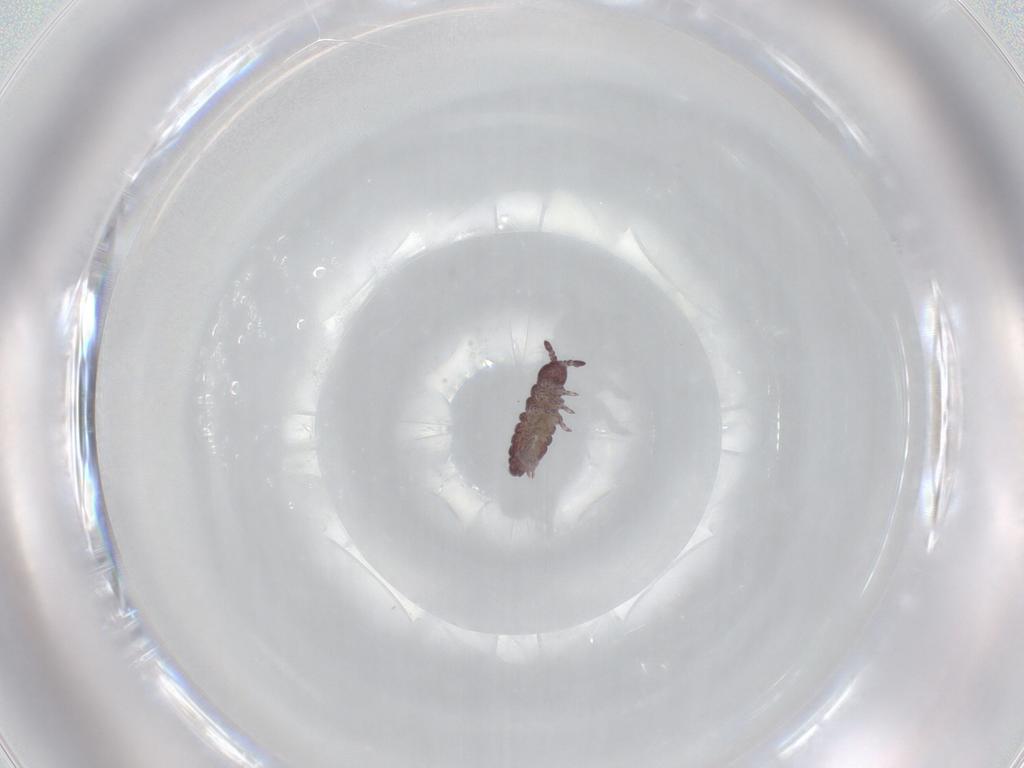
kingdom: Animalia
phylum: Arthropoda
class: Collembola
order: Poduromorpha
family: Hypogastruridae
